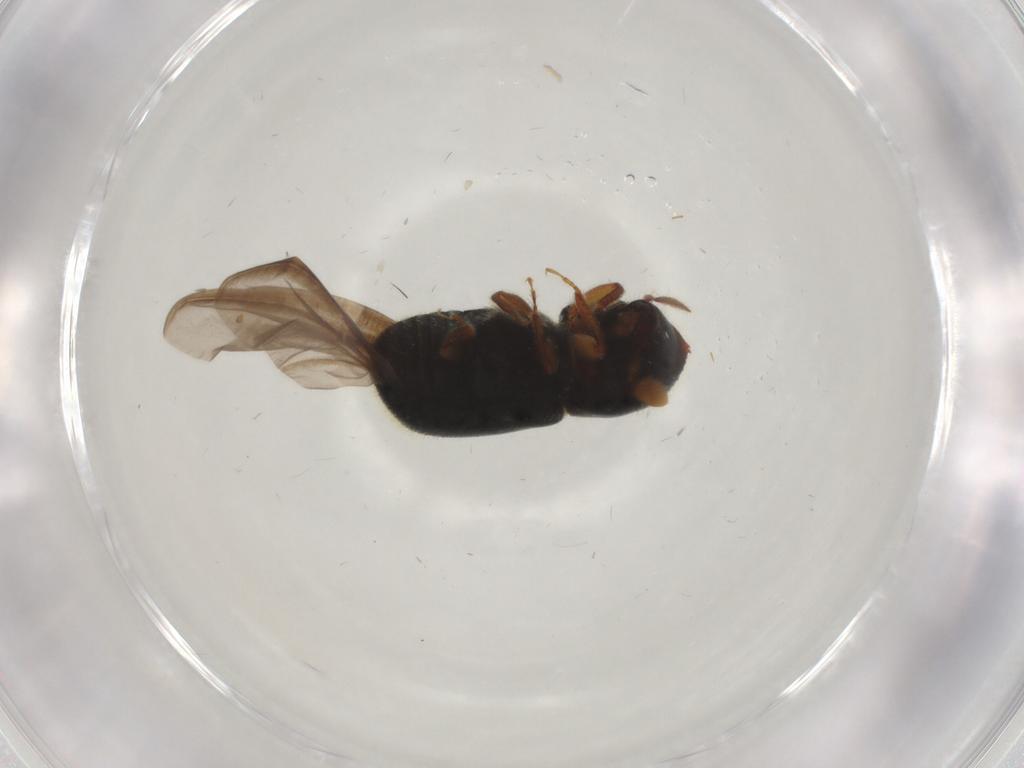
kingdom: Animalia
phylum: Arthropoda
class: Insecta
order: Coleoptera
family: Curculionidae
